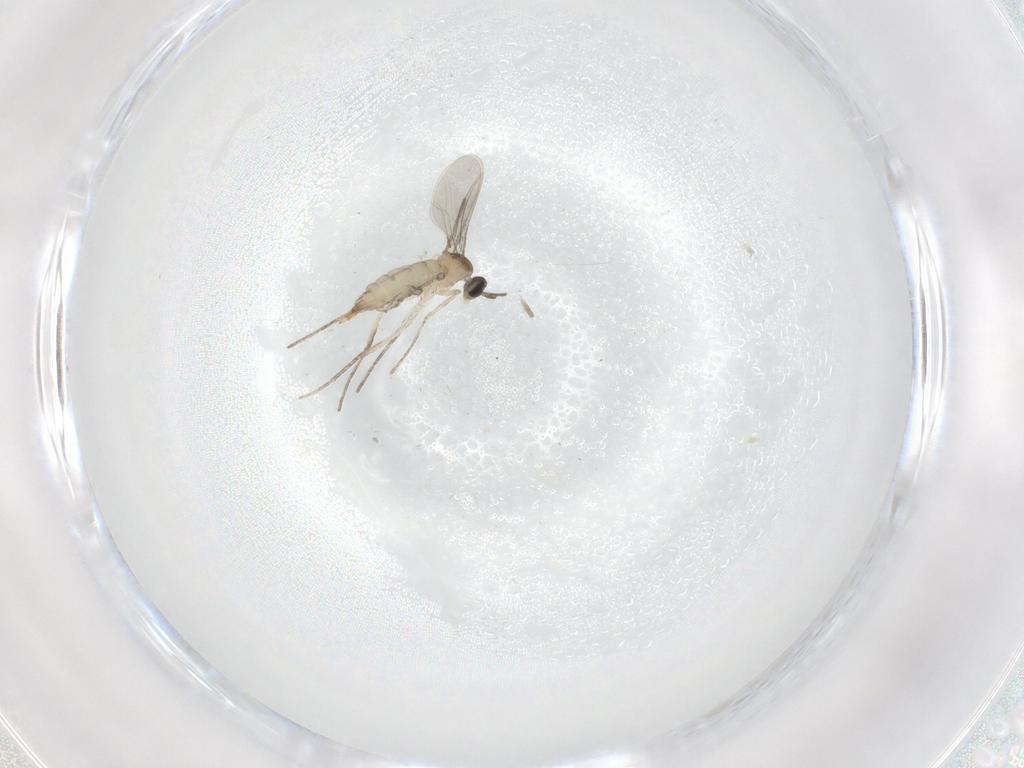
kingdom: Animalia
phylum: Arthropoda
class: Insecta
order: Diptera
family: Cecidomyiidae
